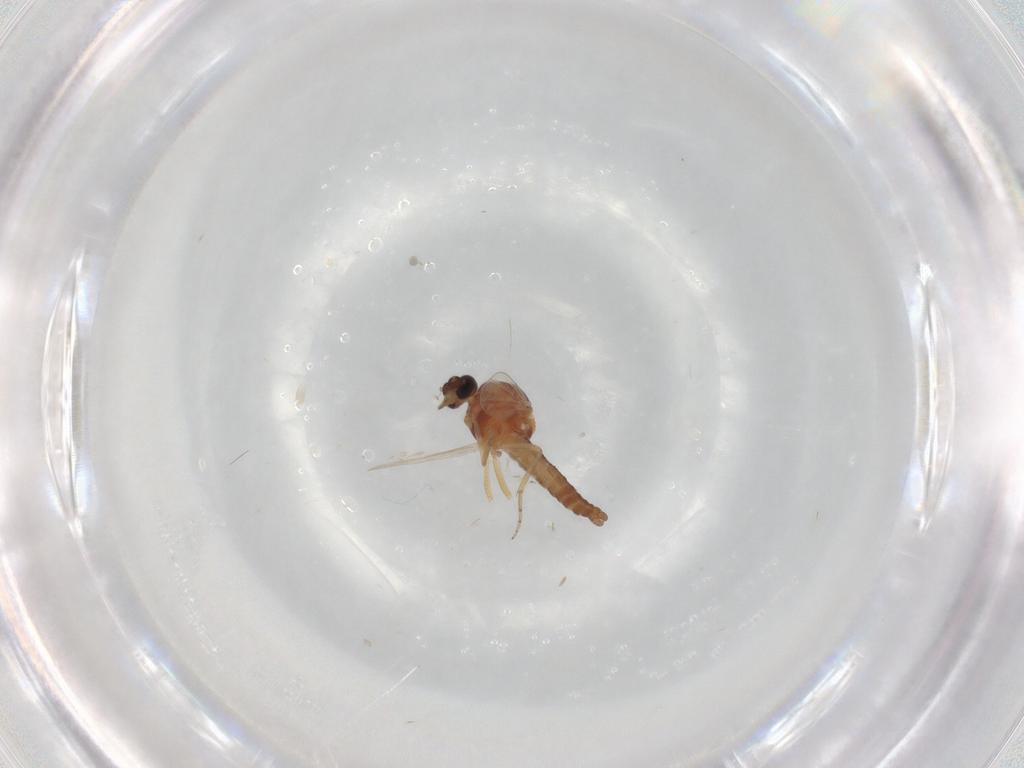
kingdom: Animalia
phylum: Arthropoda
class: Insecta
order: Diptera
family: Ceratopogonidae
